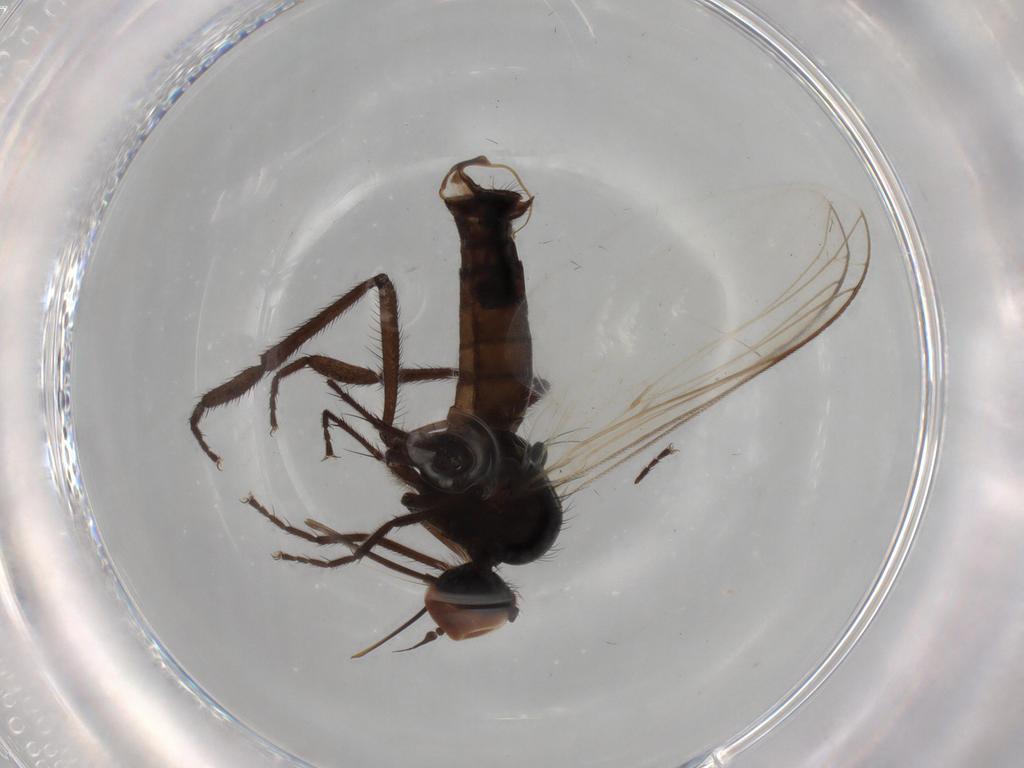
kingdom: Animalia
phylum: Arthropoda
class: Insecta
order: Diptera
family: Empididae
